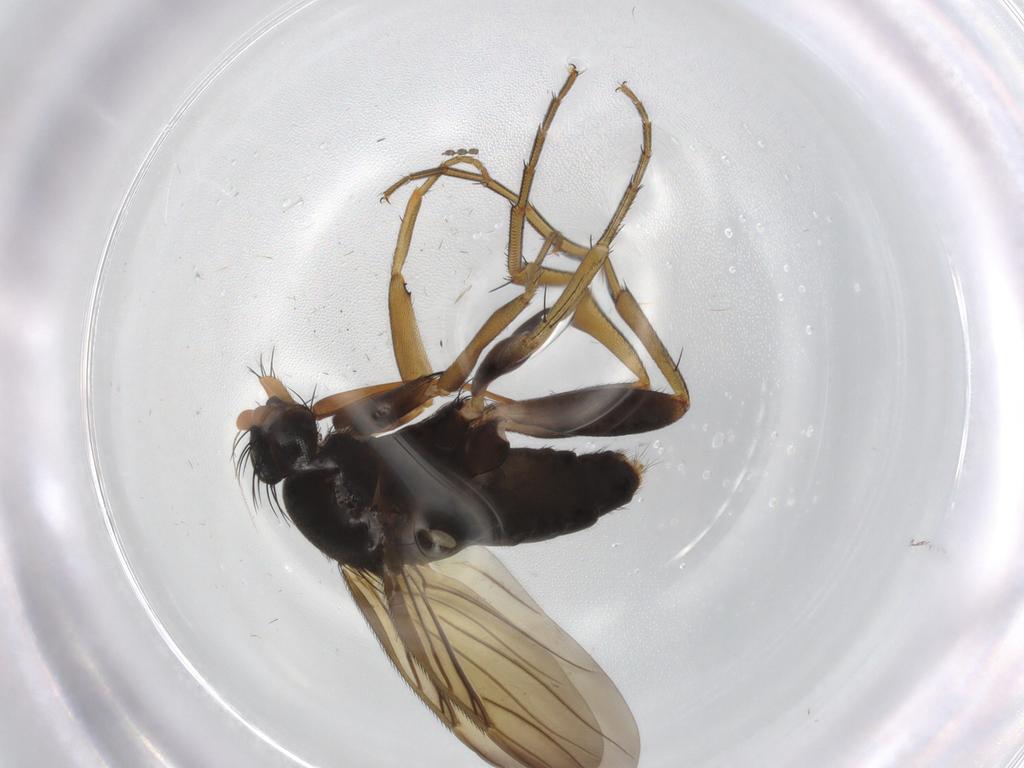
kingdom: Animalia
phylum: Arthropoda
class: Insecta
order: Diptera
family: Phoridae
